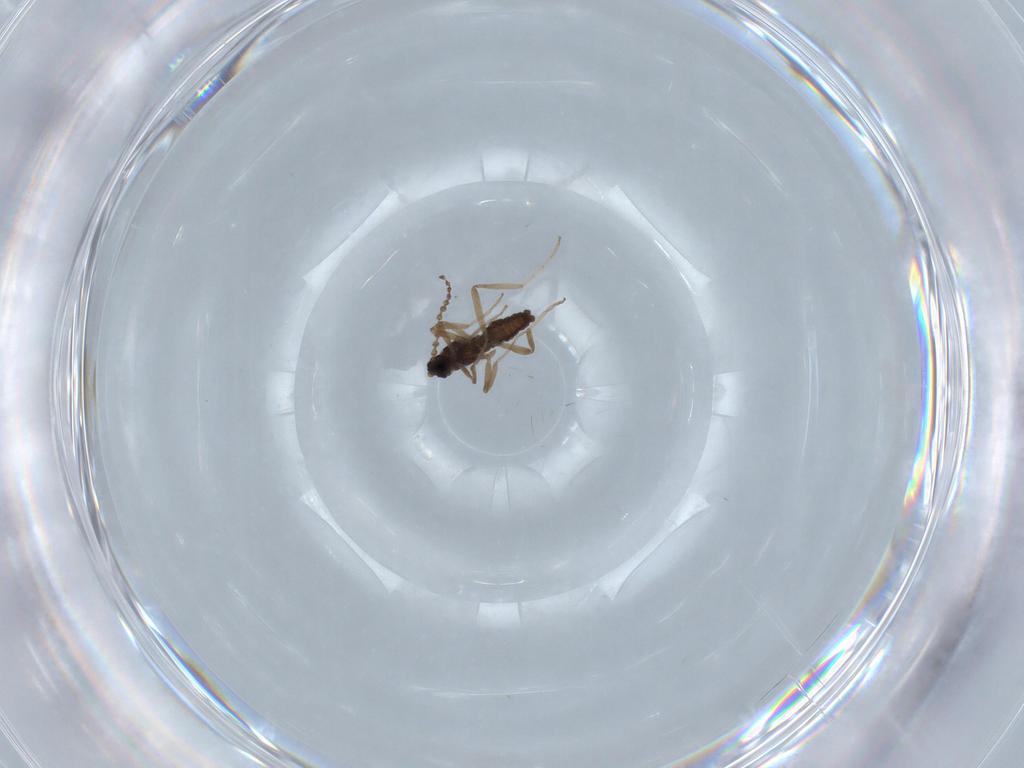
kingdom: Animalia
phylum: Arthropoda
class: Insecta
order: Diptera
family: Cecidomyiidae
